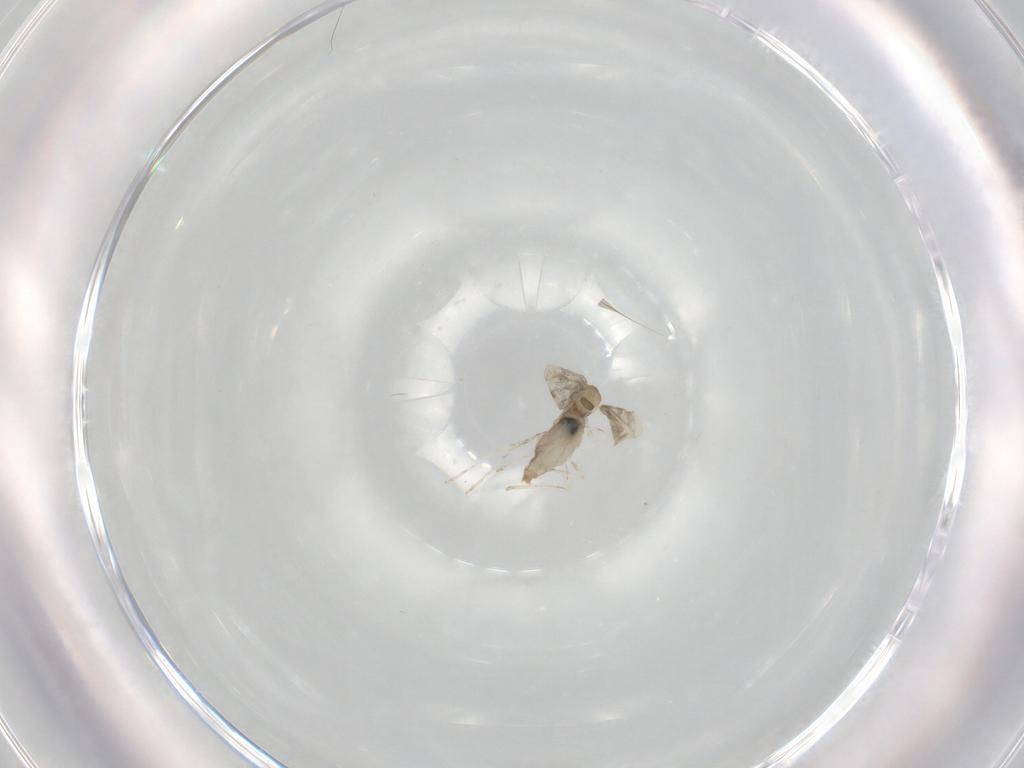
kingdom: Animalia
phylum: Arthropoda
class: Insecta
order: Diptera
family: Cecidomyiidae
